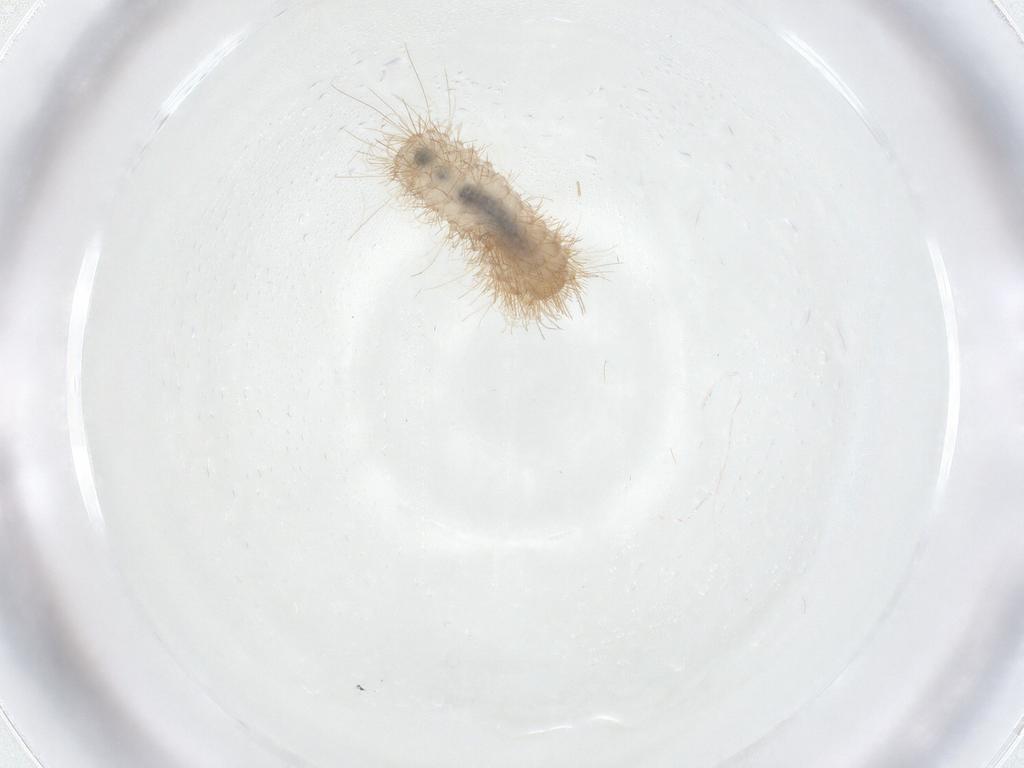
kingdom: Animalia
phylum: Arthropoda
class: Insecta
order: Lepidoptera
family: Erebidae
